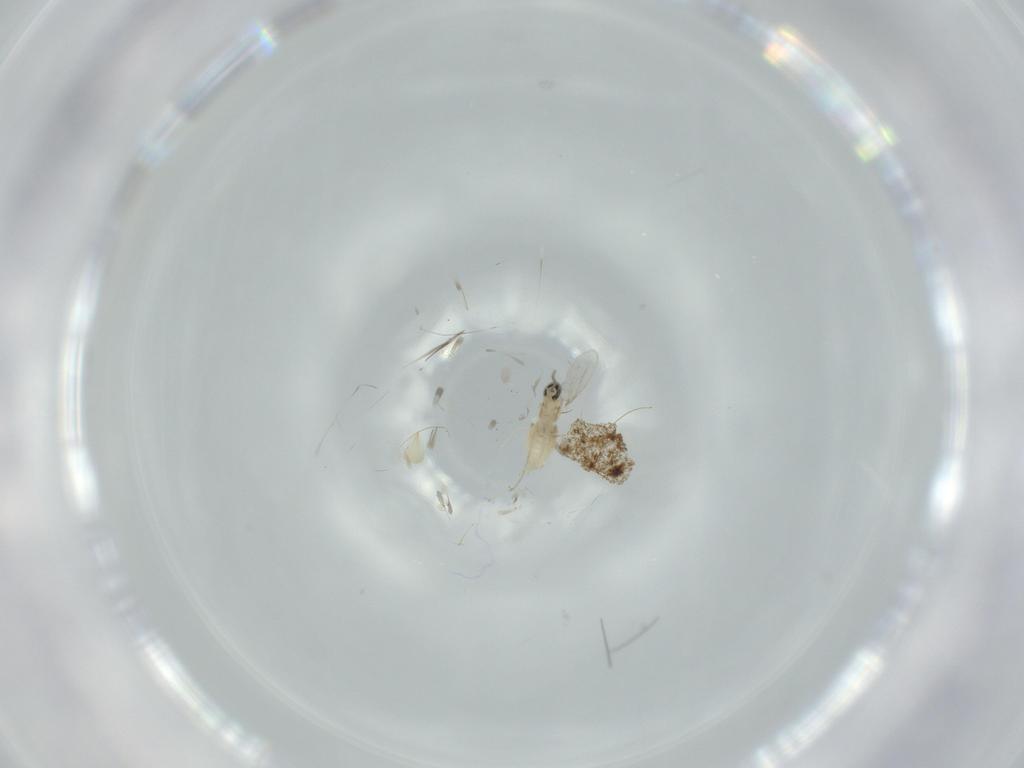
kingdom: Animalia
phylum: Arthropoda
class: Insecta
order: Diptera
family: Cecidomyiidae
